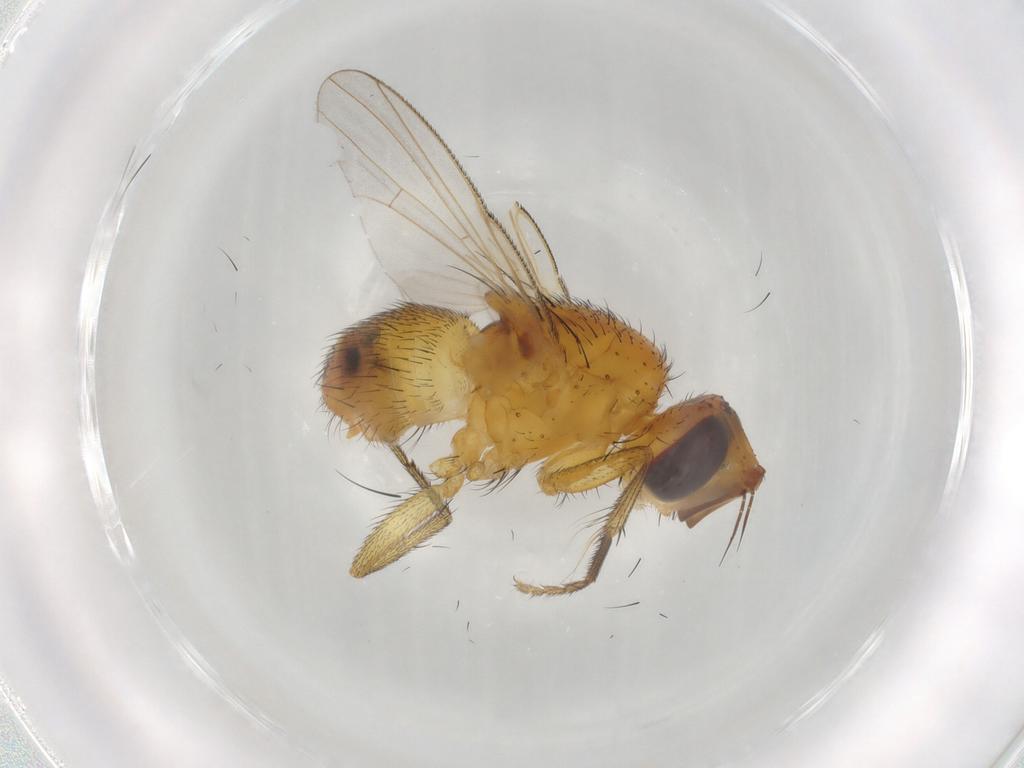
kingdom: Animalia
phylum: Arthropoda
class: Insecta
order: Diptera
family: Muscidae
